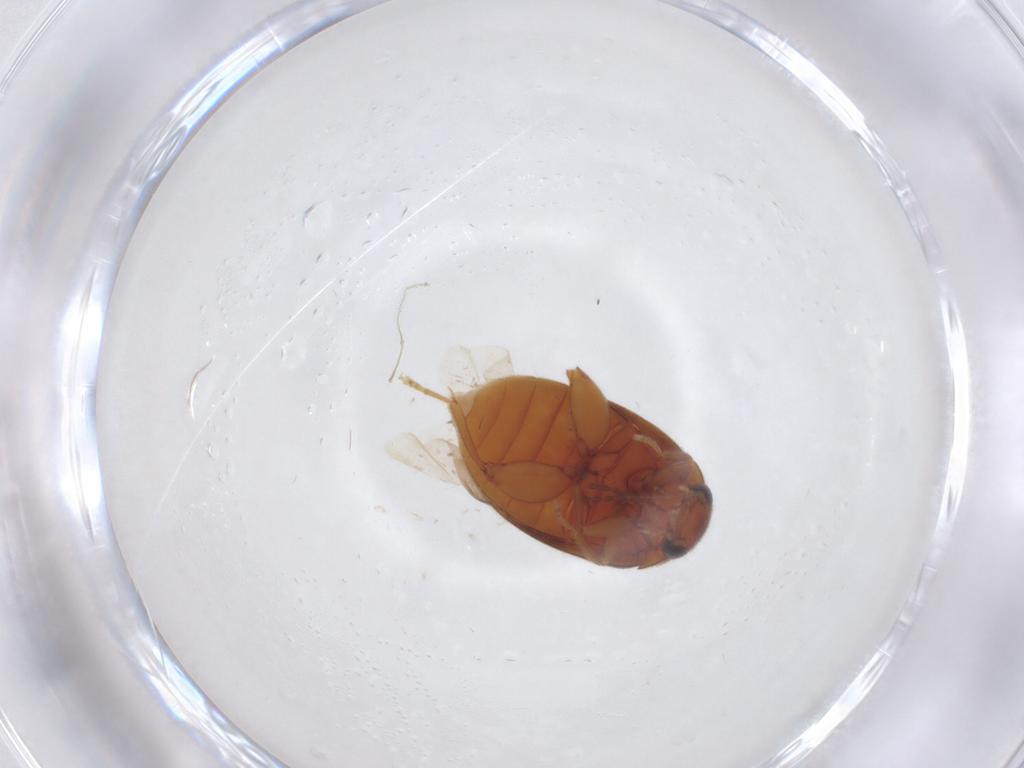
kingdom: Animalia
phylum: Arthropoda
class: Insecta
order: Coleoptera
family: Scirtidae
